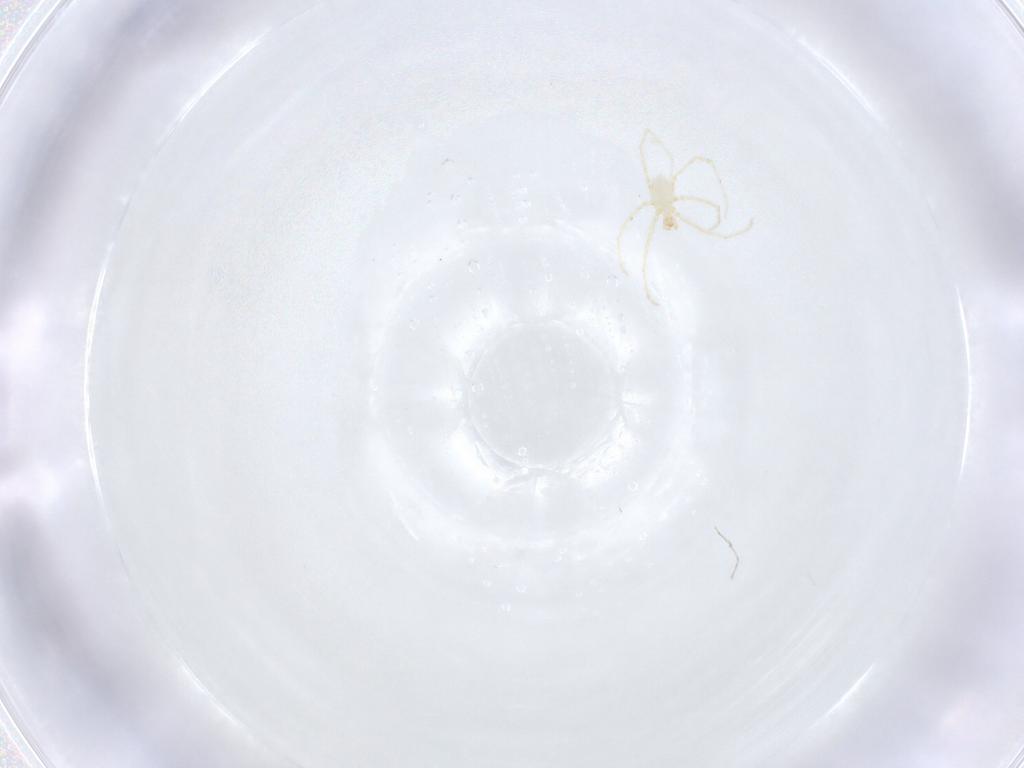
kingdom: Animalia
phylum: Arthropoda
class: Arachnida
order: Trombidiformes
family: Erythraeidae
